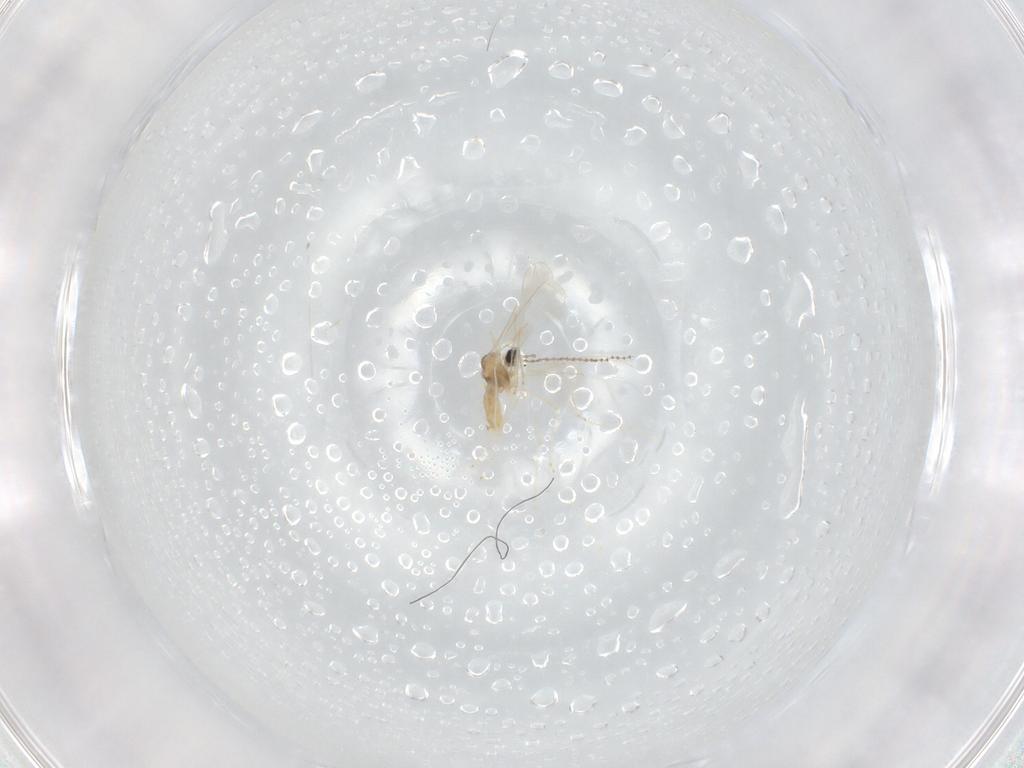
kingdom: Animalia
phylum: Arthropoda
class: Insecta
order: Diptera
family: Cecidomyiidae
